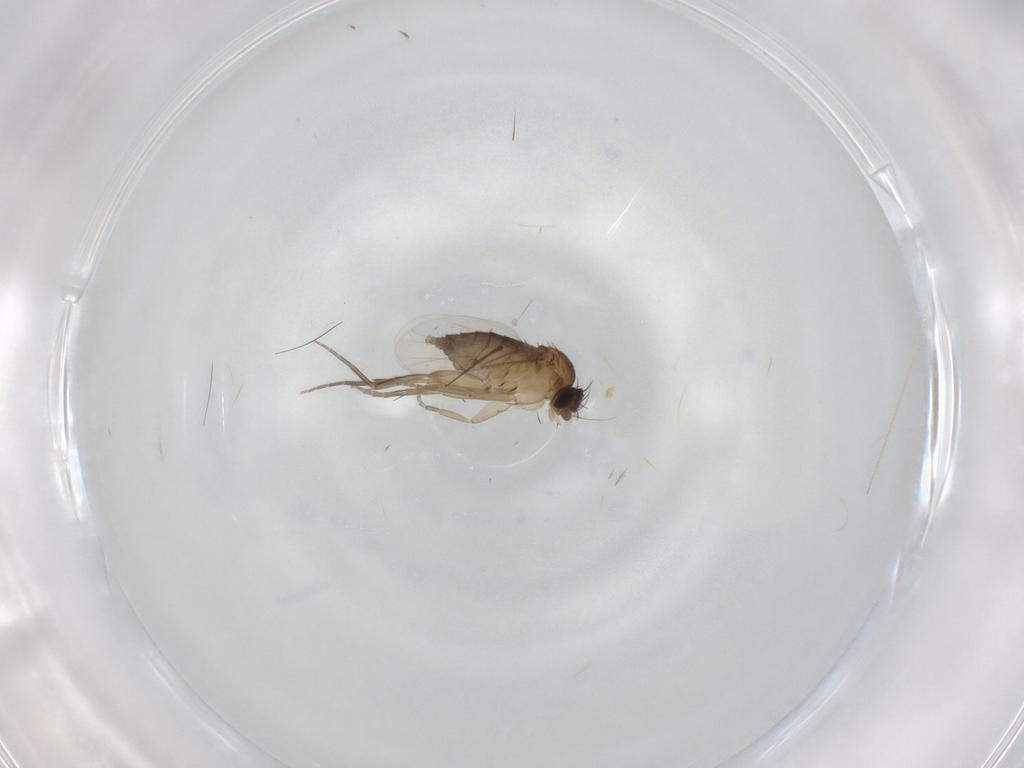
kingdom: Animalia
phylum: Arthropoda
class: Insecta
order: Diptera
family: Phoridae
